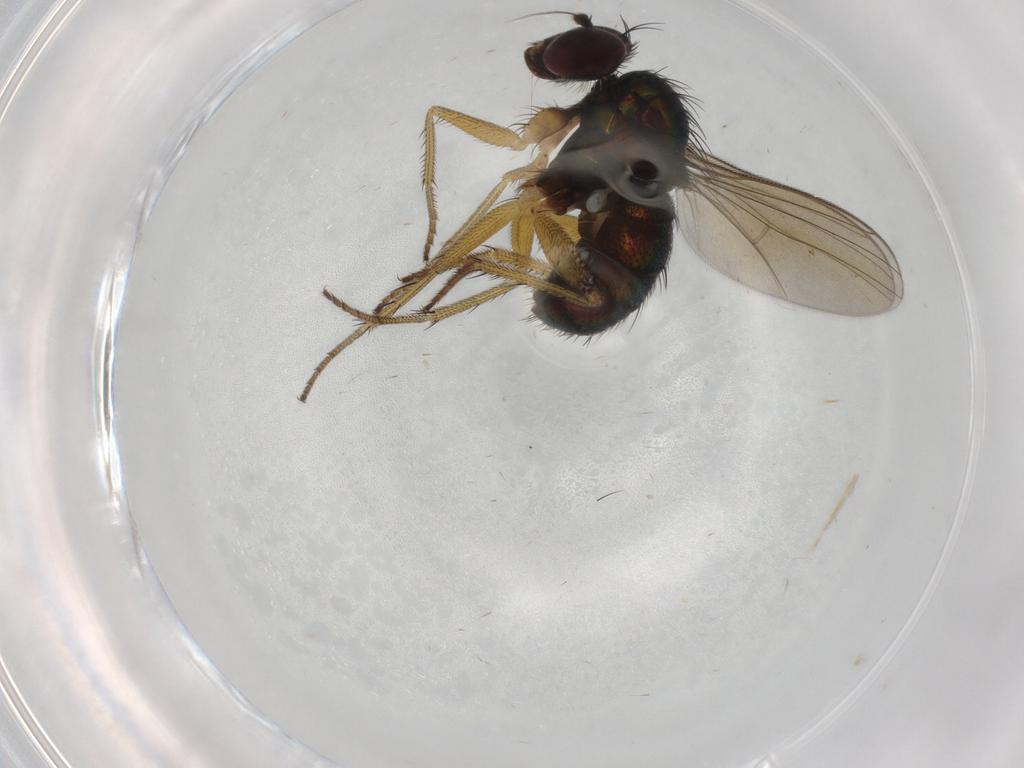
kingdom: Animalia
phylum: Arthropoda
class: Insecta
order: Diptera
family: Dolichopodidae
